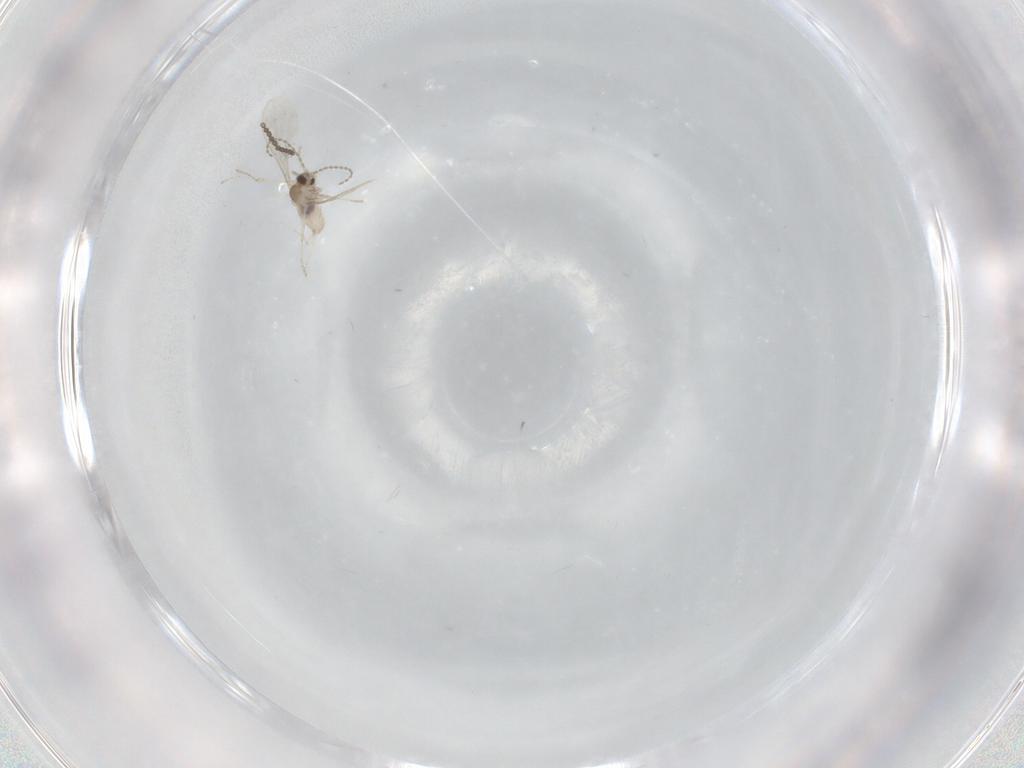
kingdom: Animalia
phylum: Arthropoda
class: Insecta
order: Diptera
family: Cecidomyiidae
